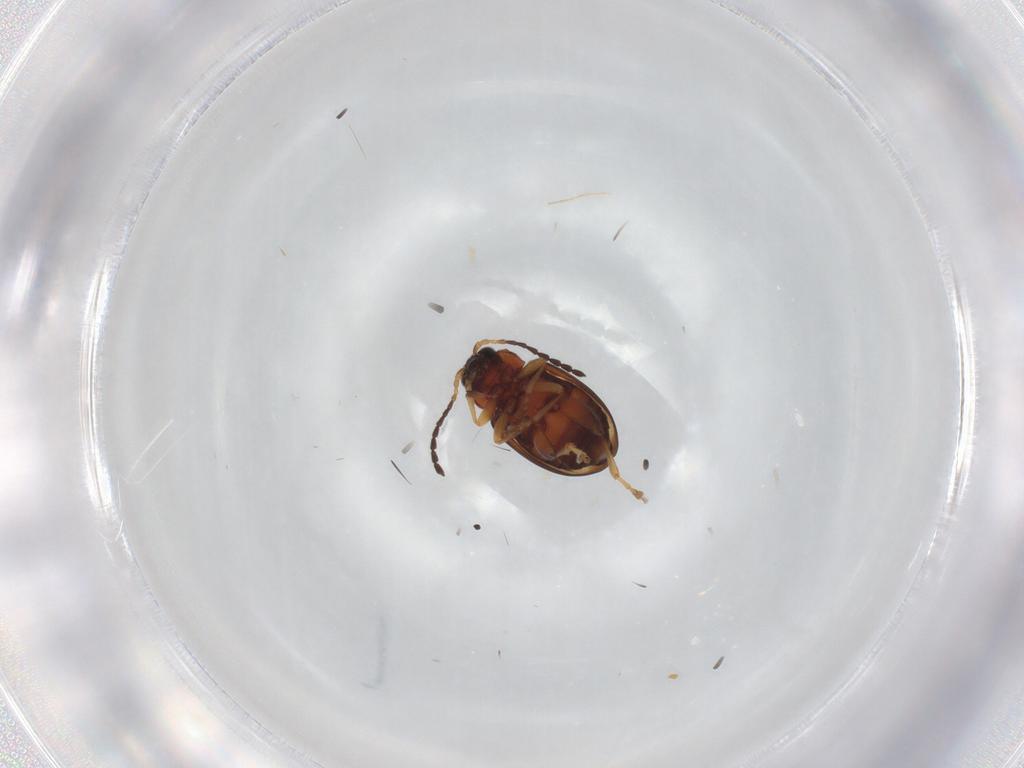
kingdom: Animalia
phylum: Arthropoda
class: Insecta
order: Coleoptera
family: Chrysomelidae
